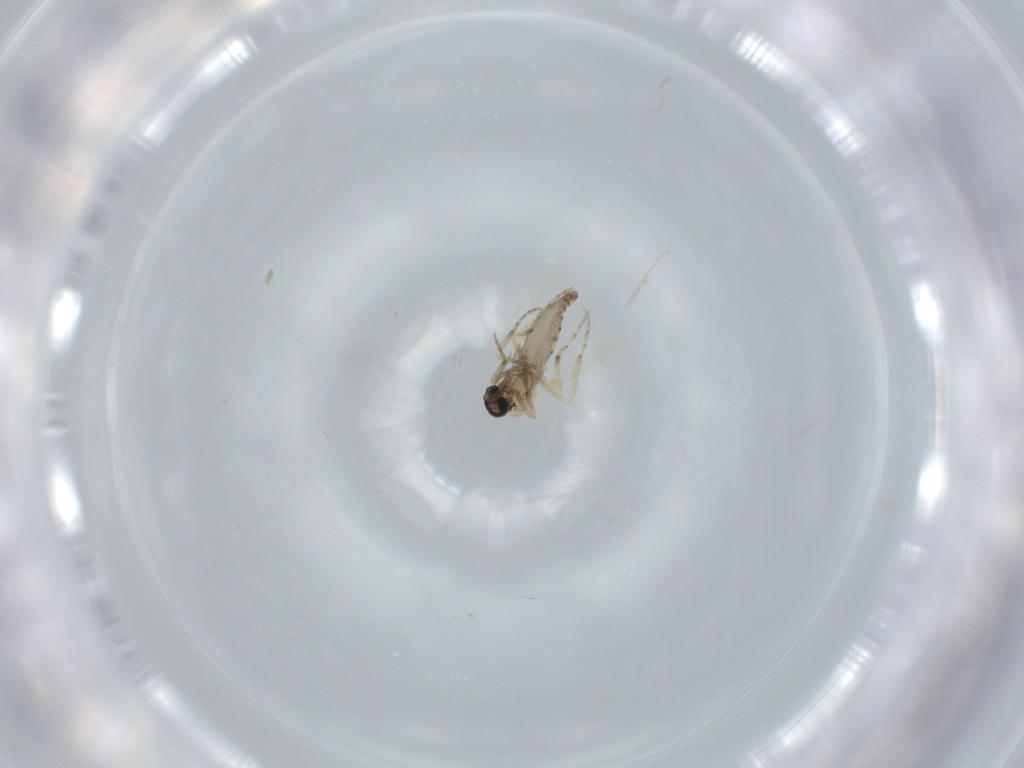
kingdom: Animalia
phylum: Arthropoda
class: Insecta
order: Diptera
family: Ceratopogonidae
